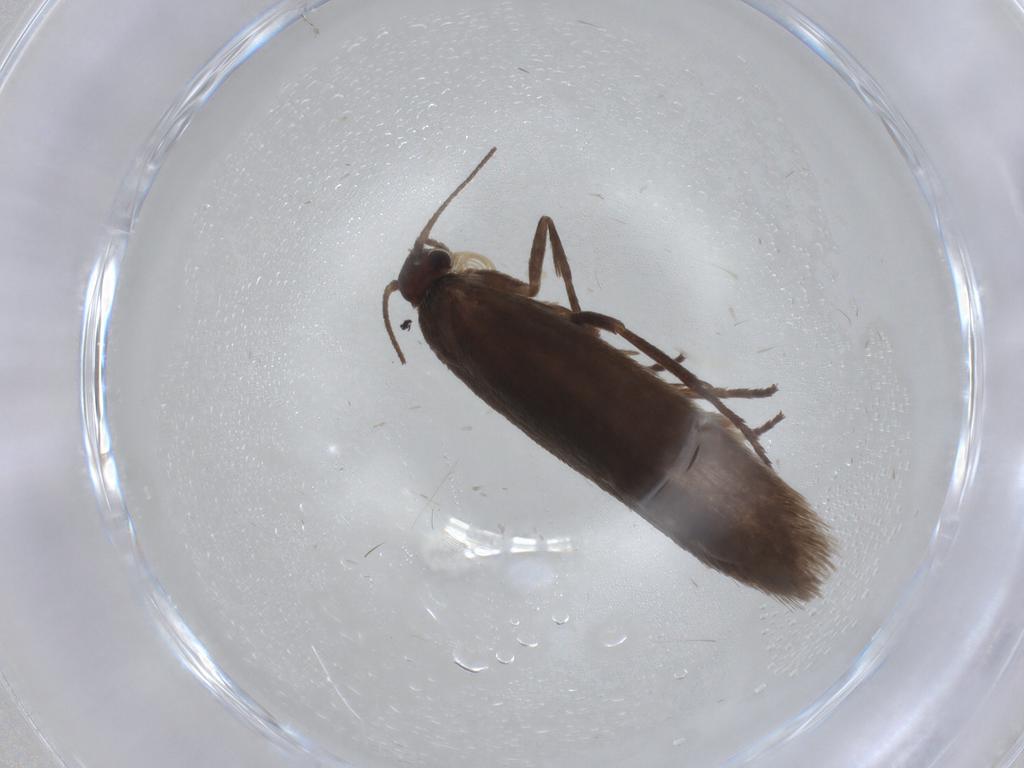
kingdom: Animalia
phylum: Arthropoda
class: Insecta
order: Lepidoptera
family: Limacodidae
